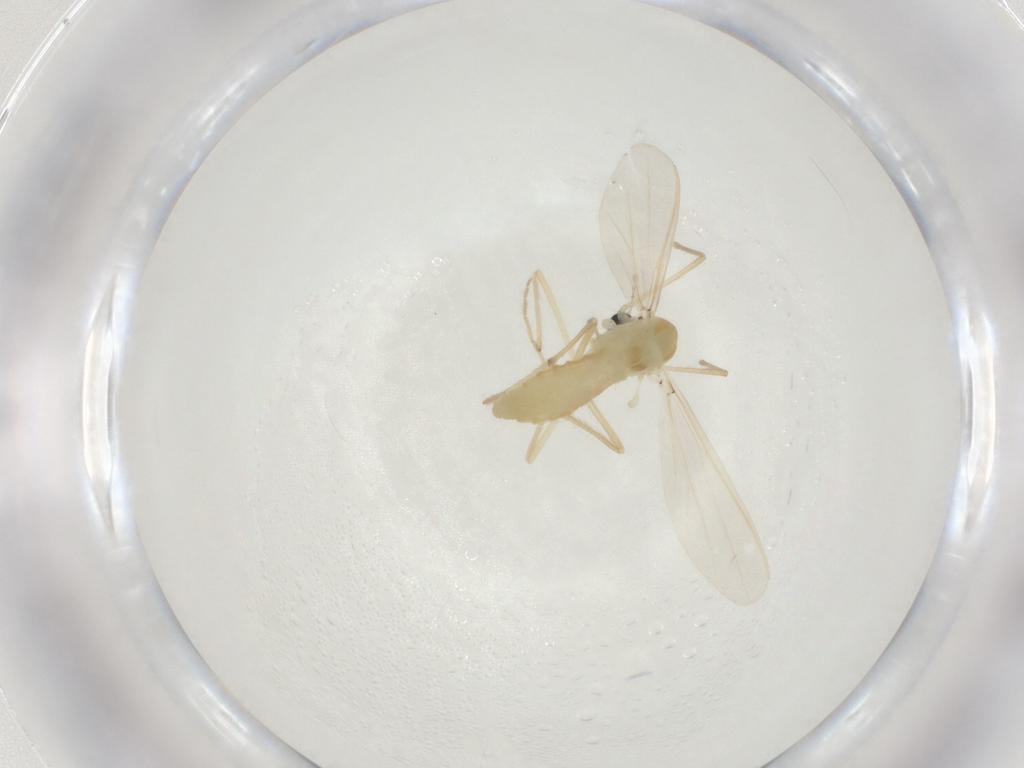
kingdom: Animalia
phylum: Arthropoda
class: Insecta
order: Diptera
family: Chironomidae
